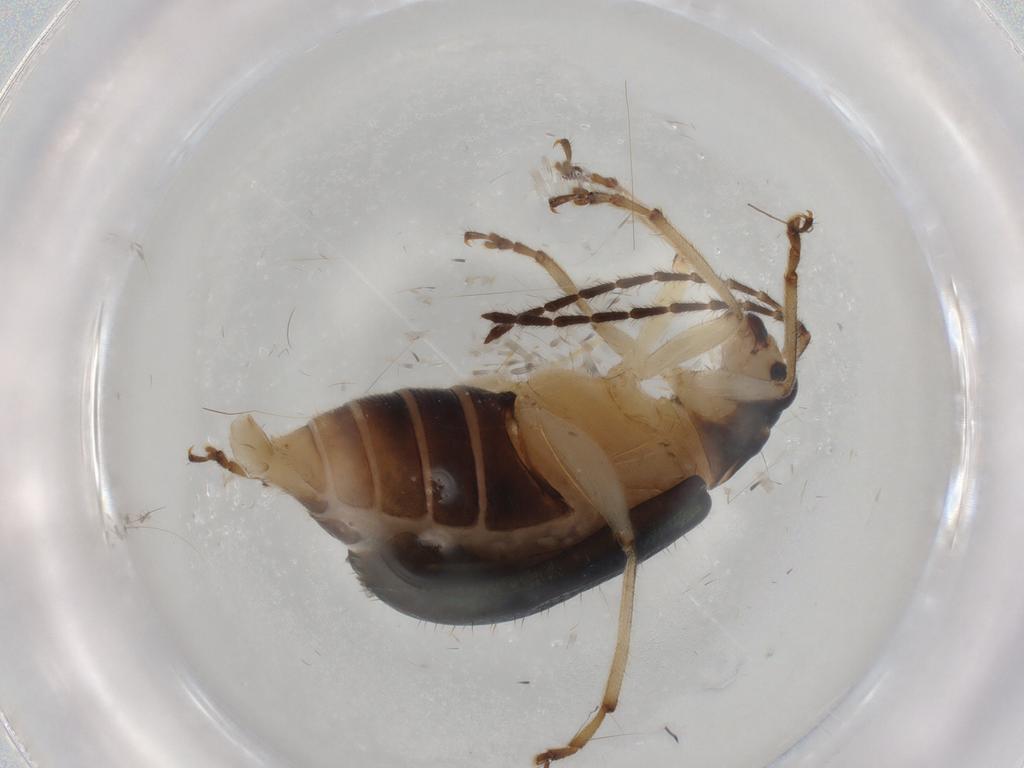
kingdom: Animalia
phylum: Arthropoda
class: Insecta
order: Coleoptera
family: Chrysomelidae
